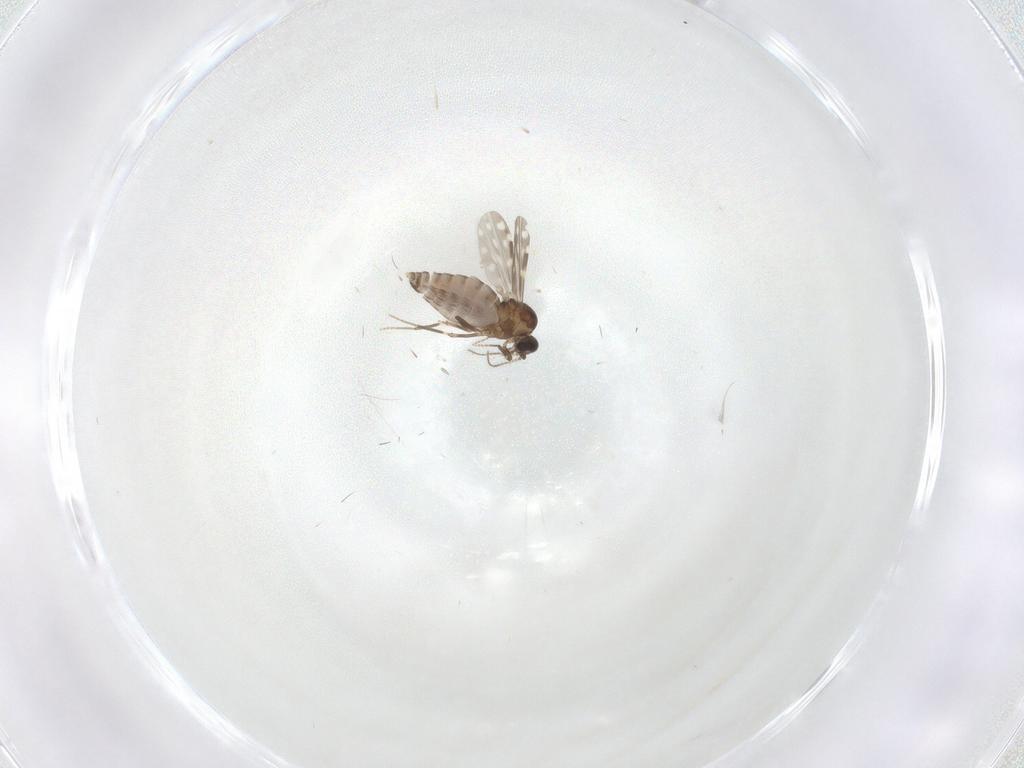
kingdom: Animalia
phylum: Arthropoda
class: Insecta
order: Diptera
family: Ceratopogonidae
